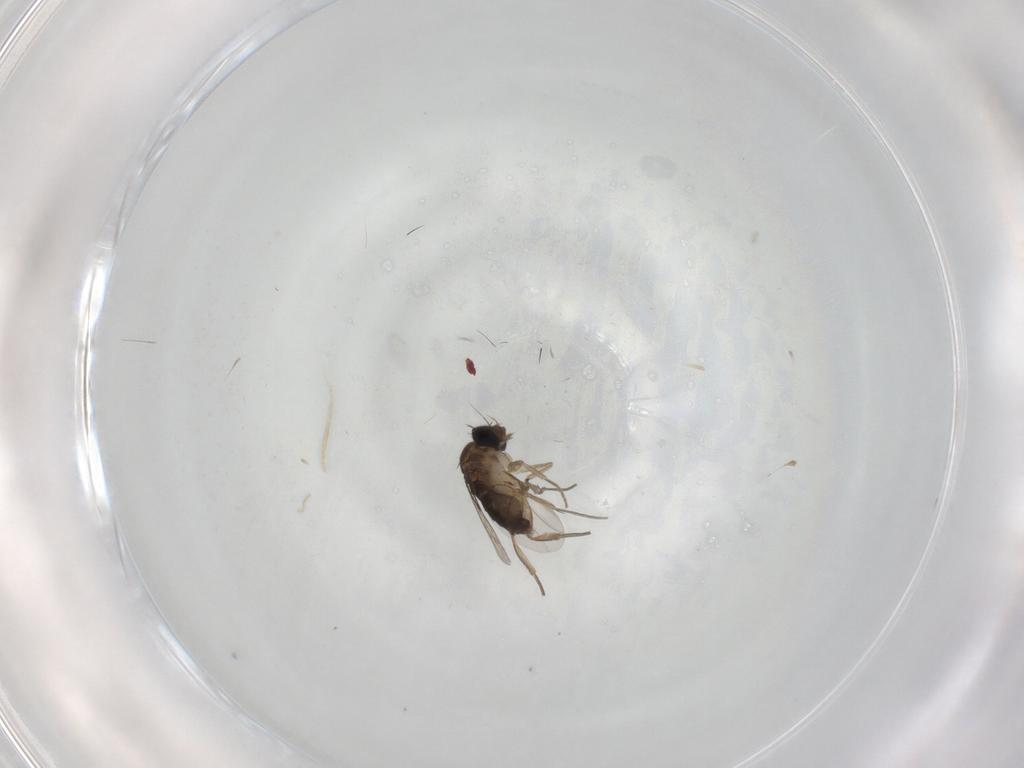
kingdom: Animalia
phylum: Arthropoda
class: Insecta
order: Diptera
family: Phoridae
